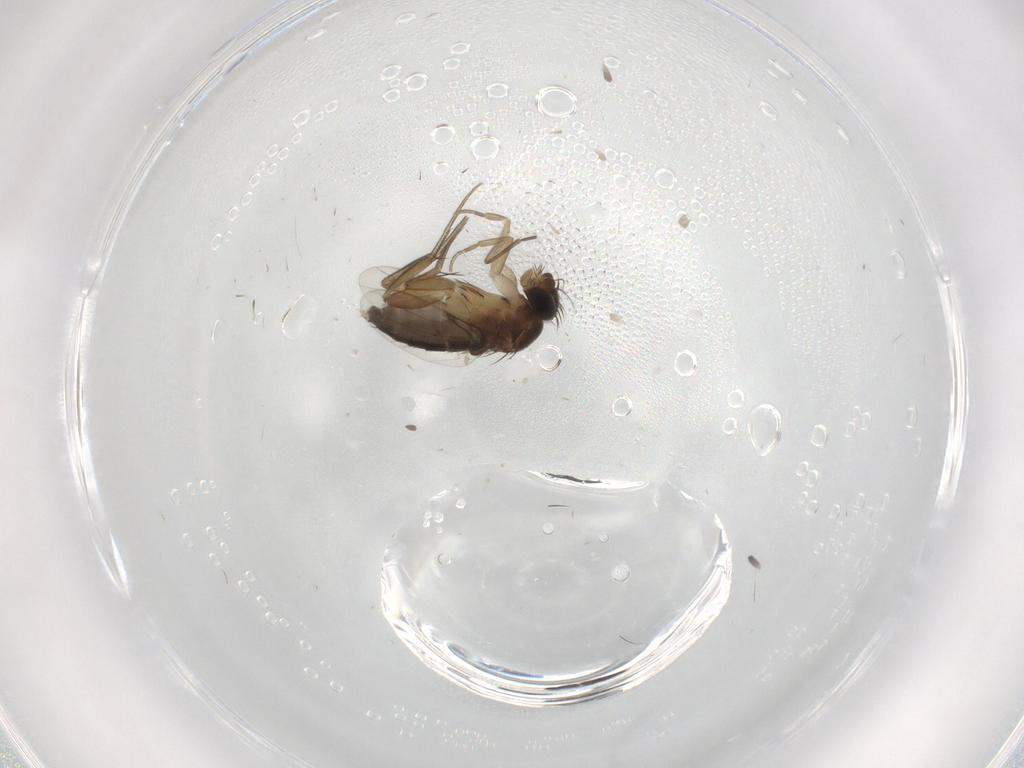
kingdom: Animalia
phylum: Arthropoda
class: Insecta
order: Diptera
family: Phoridae
